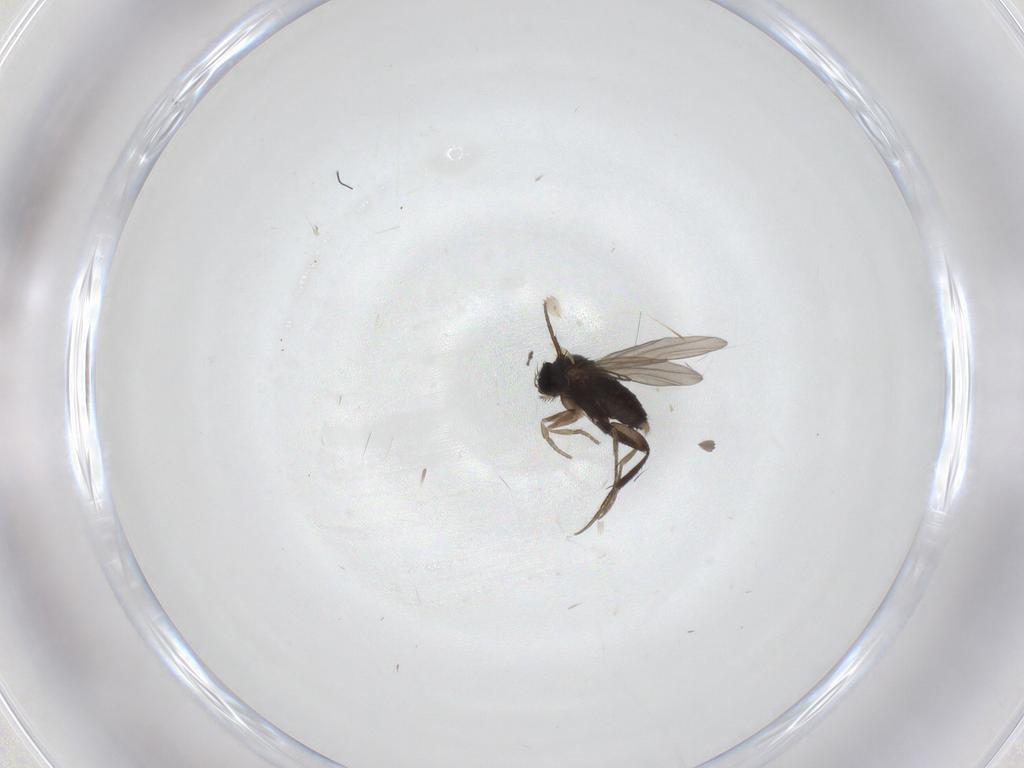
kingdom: Animalia
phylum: Arthropoda
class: Insecta
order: Diptera
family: Phoridae
